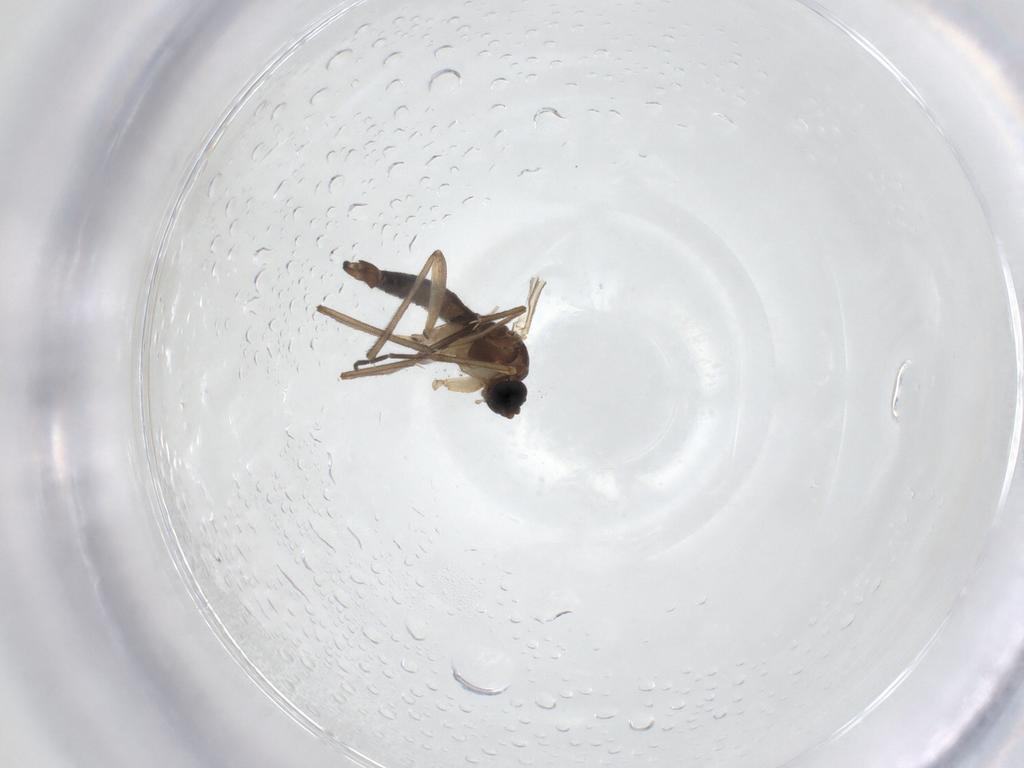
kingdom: Animalia
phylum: Arthropoda
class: Insecta
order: Diptera
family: Sciaridae
